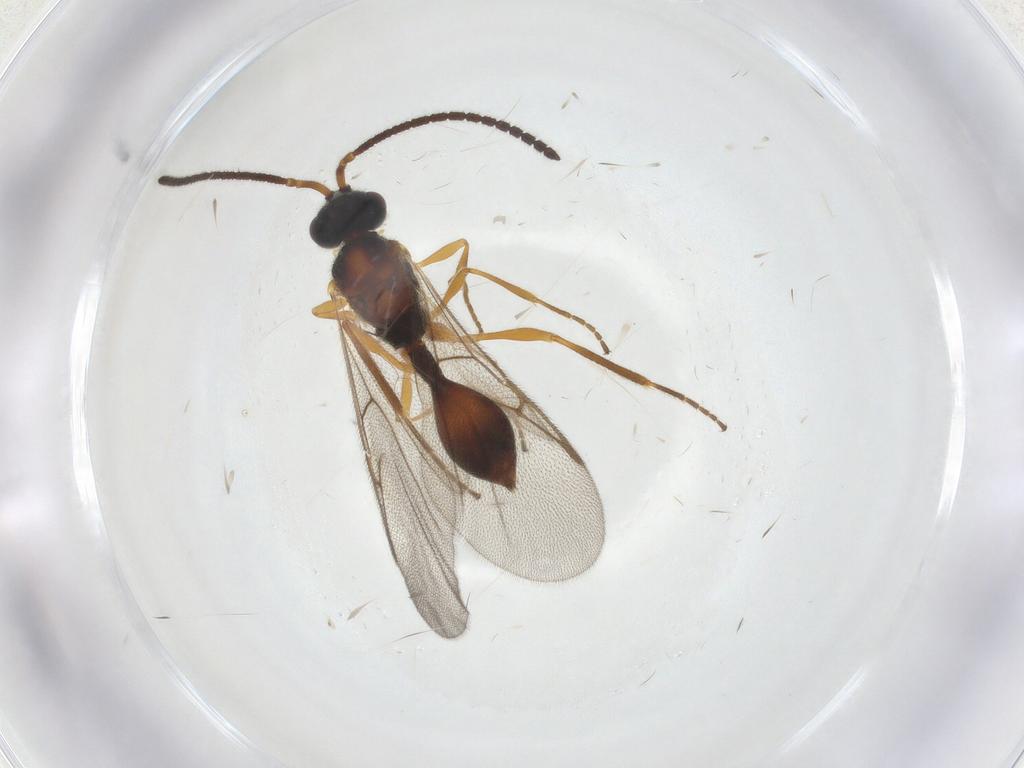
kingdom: Animalia
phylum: Arthropoda
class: Insecta
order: Hymenoptera
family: Diapriidae
